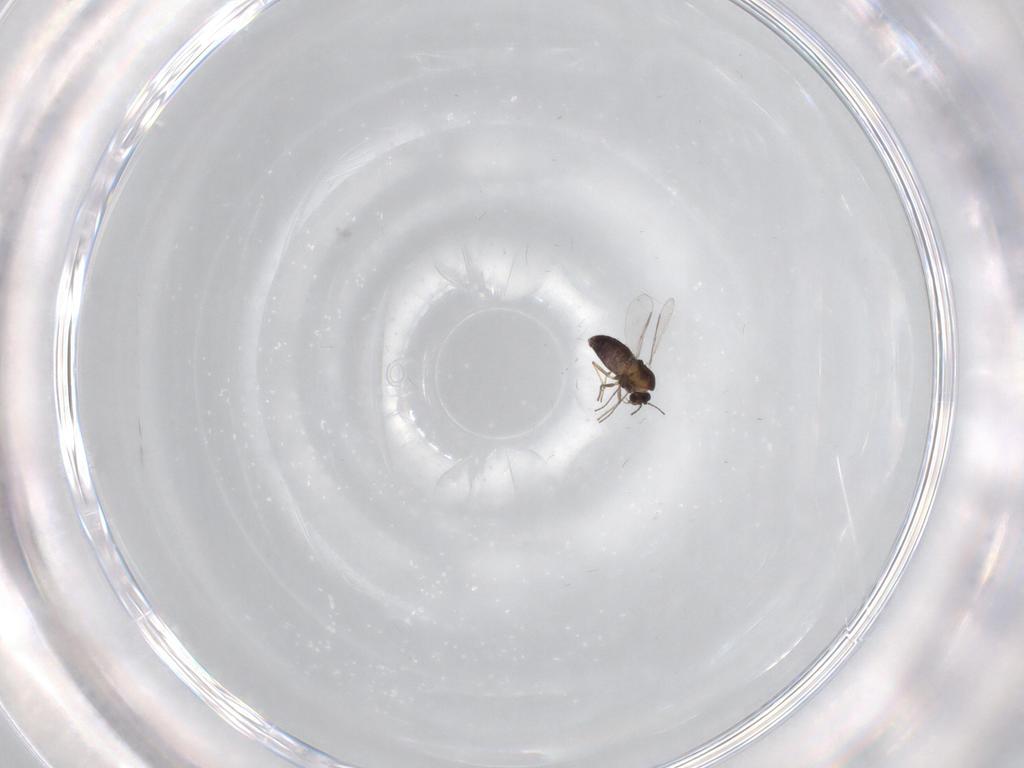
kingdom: Animalia
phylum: Arthropoda
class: Insecta
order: Diptera
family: Chironomidae
